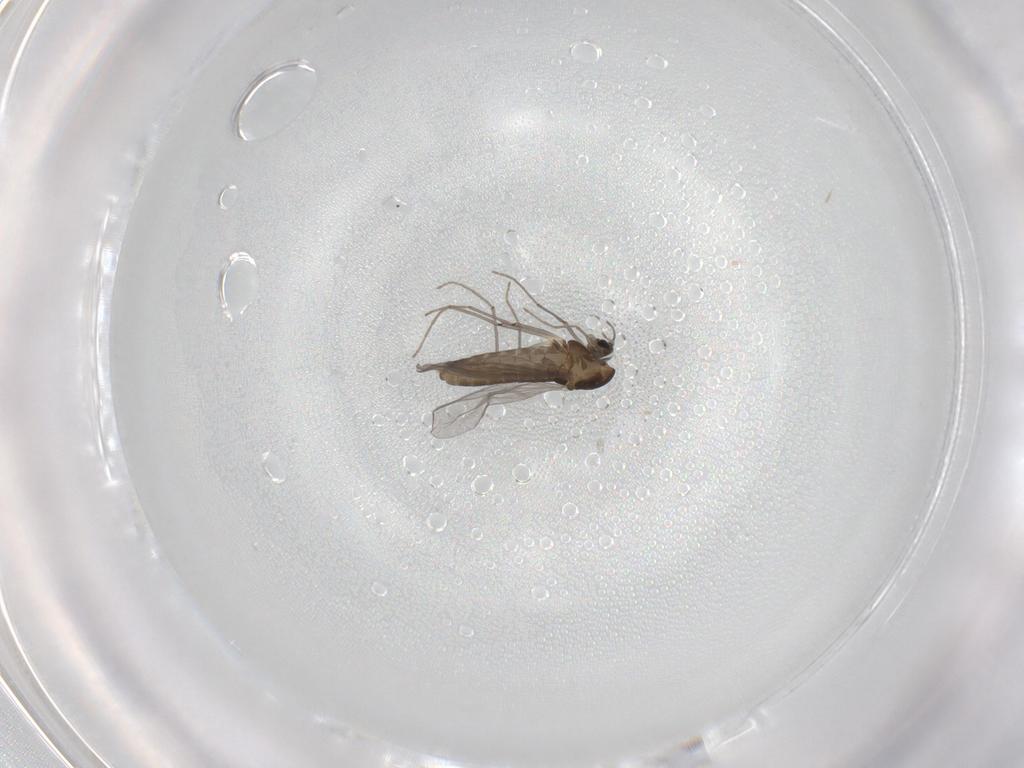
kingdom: Animalia
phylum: Arthropoda
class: Insecta
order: Diptera
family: Chironomidae
